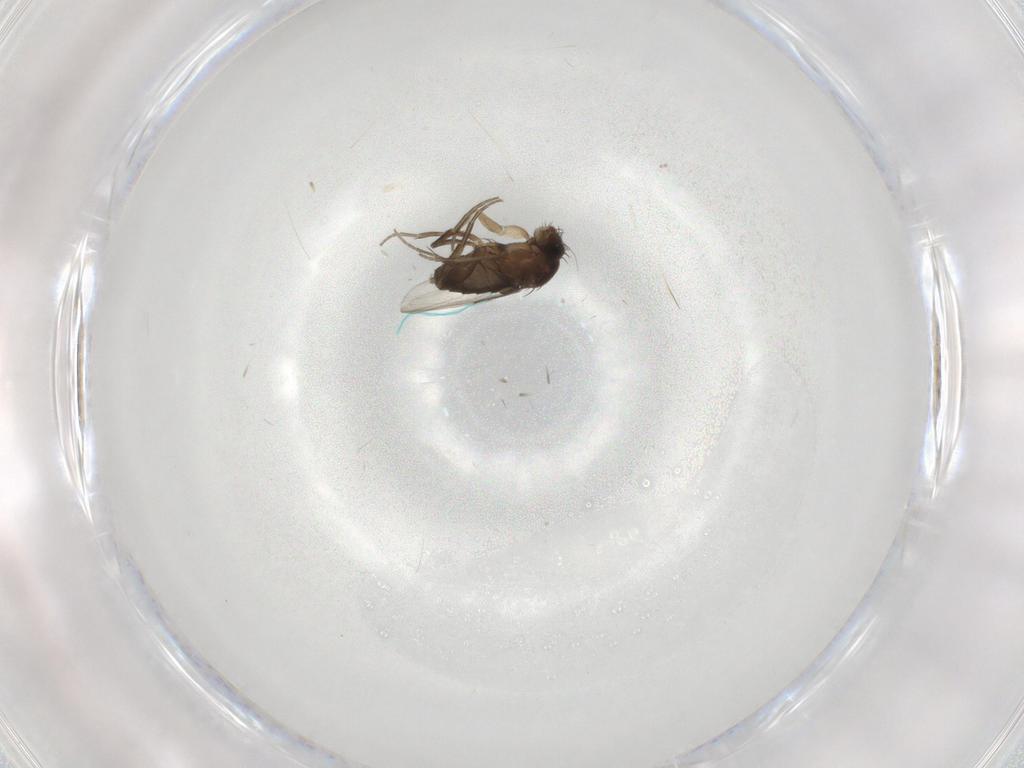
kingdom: Animalia
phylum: Arthropoda
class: Insecta
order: Diptera
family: Phoridae
